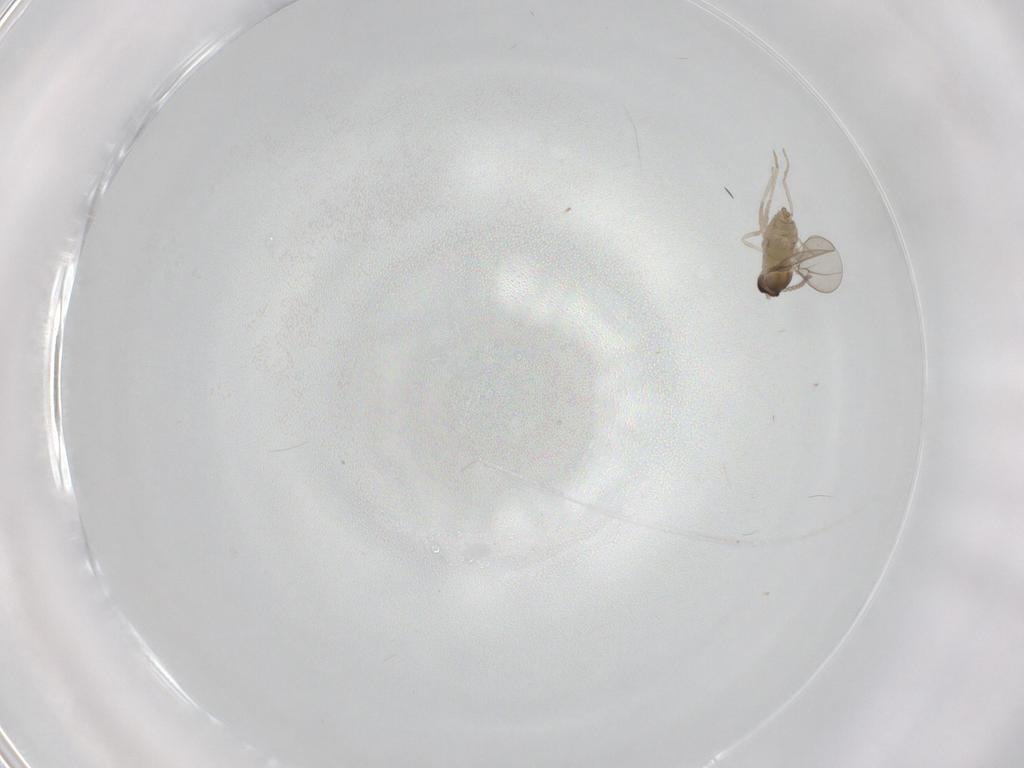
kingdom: Animalia
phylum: Arthropoda
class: Insecta
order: Diptera
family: Cecidomyiidae
